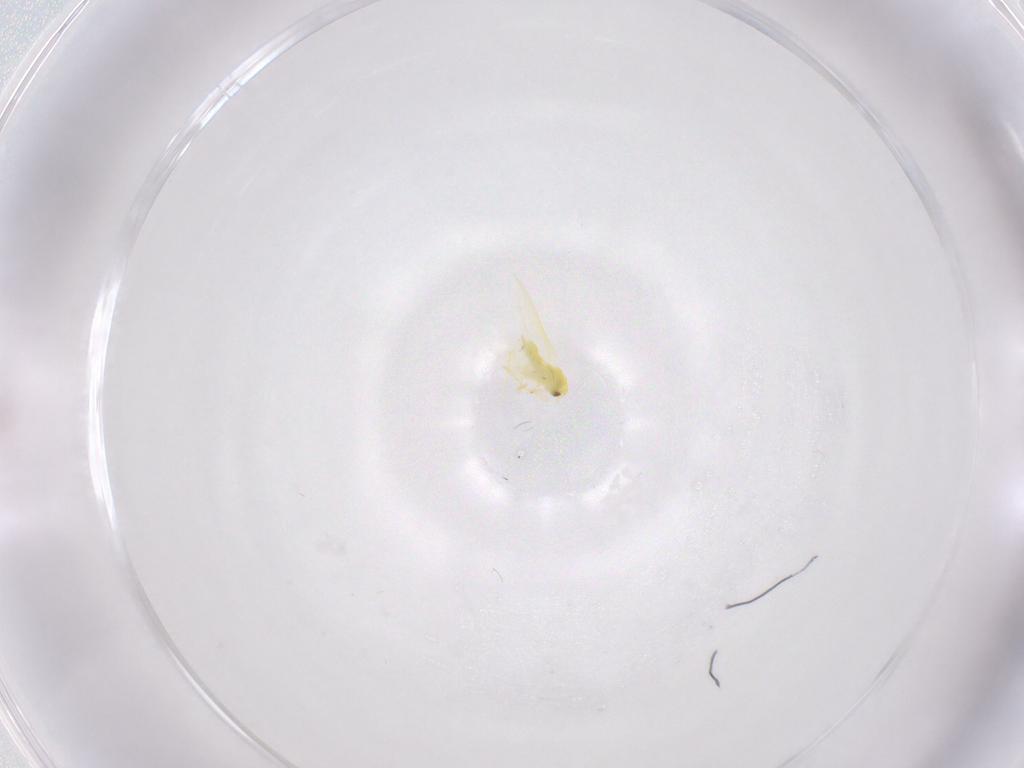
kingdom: Animalia
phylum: Arthropoda
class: Insecta
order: Hemiptera
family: Aleyrodidae
